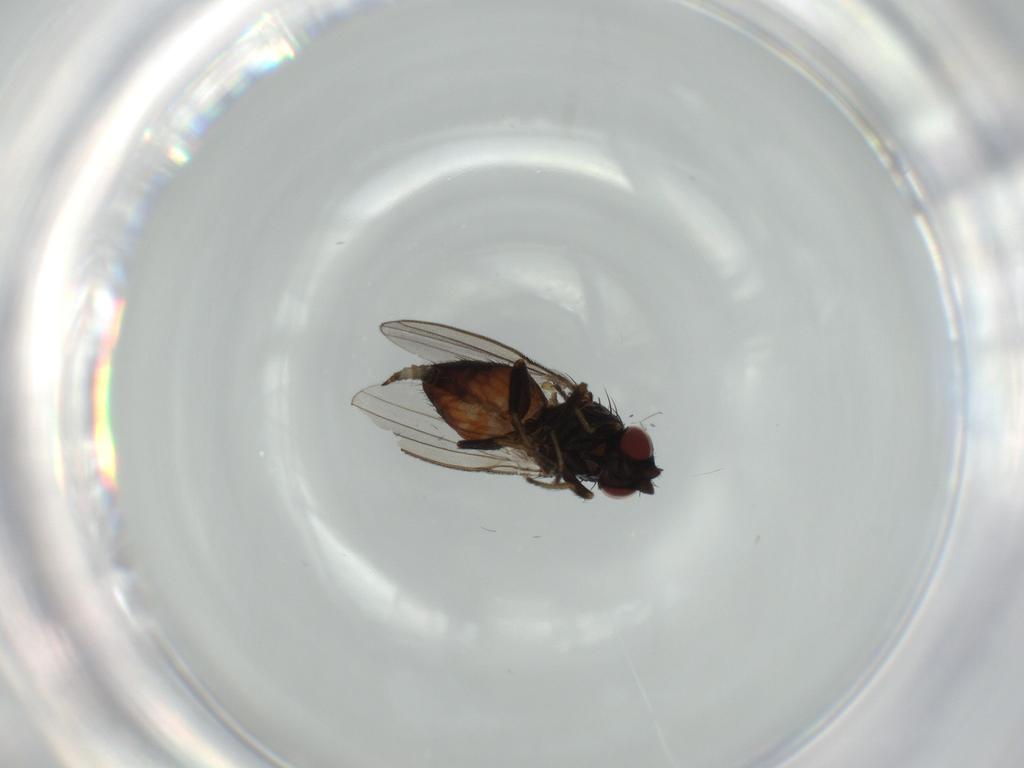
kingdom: Animalia
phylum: Arthropoda
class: Insecta
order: Diptera
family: Milichiidae
